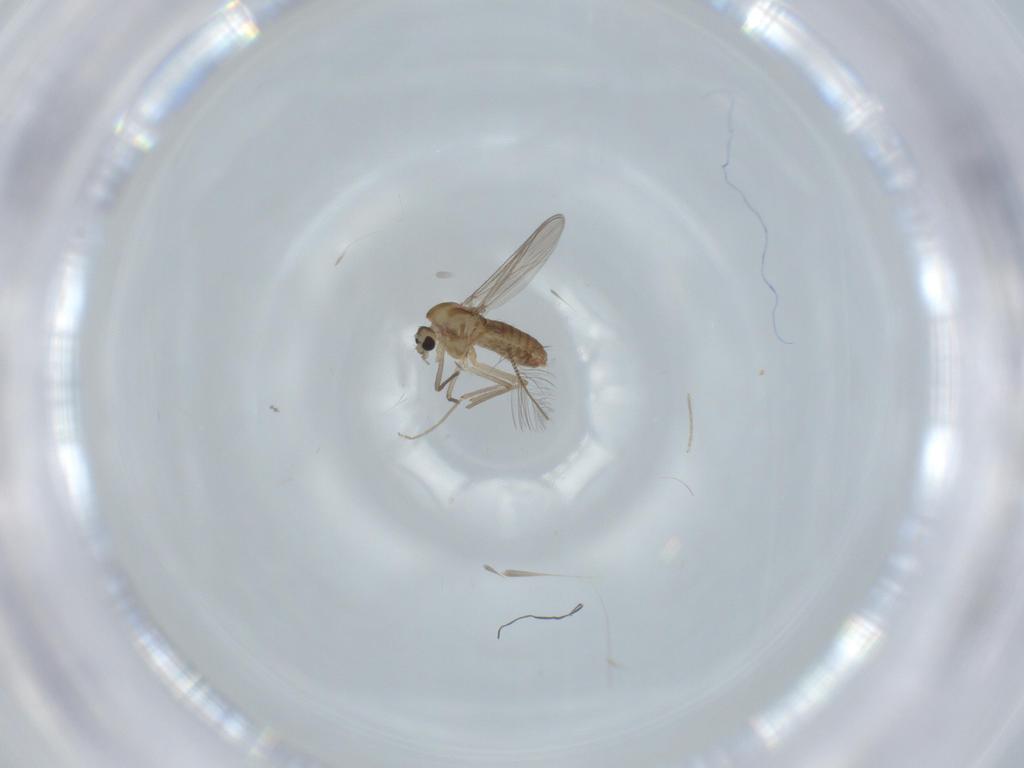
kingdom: Animalia
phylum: Arthropoda
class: Insecta
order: Diptera
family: Chironomidae
